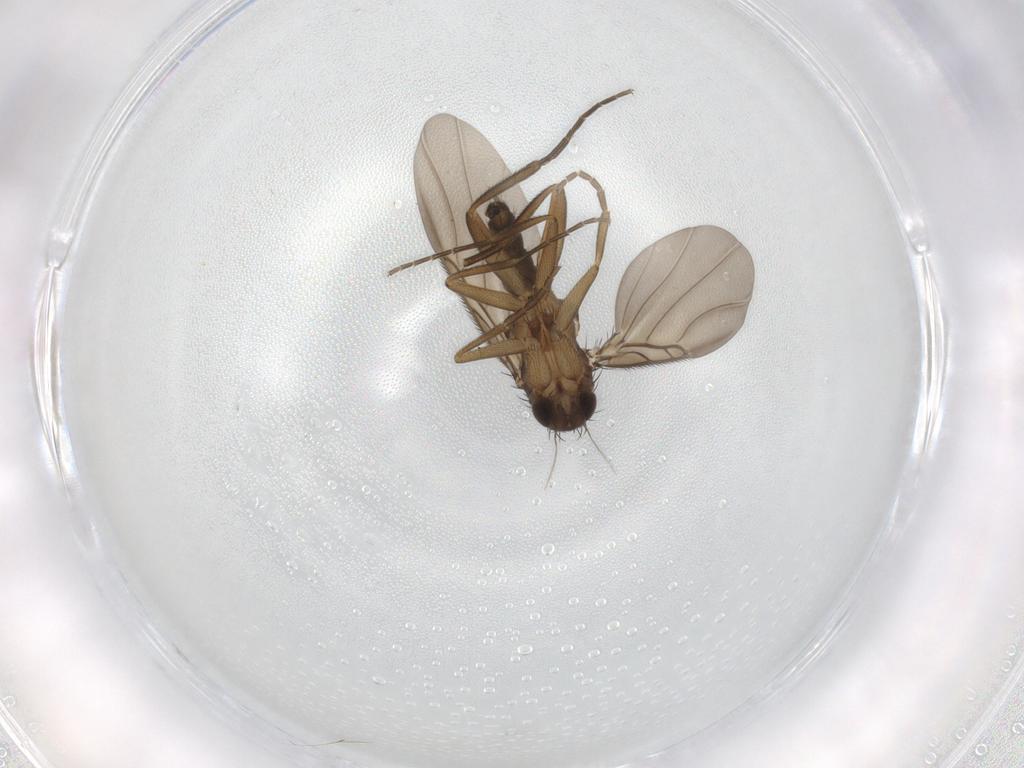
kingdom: Animalia
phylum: Arthropoda
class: Insecta
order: Diptera
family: Phoridae
